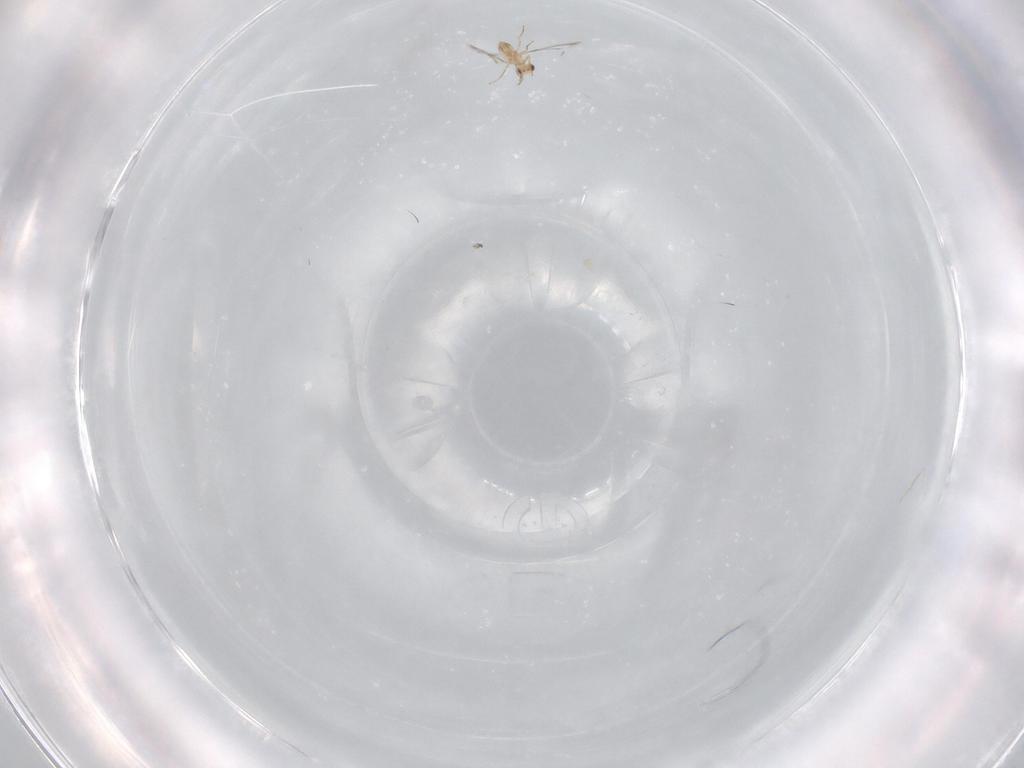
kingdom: Animalia
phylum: Arthropoda
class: Insecta
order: Hymenoptera
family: Mymaridae
